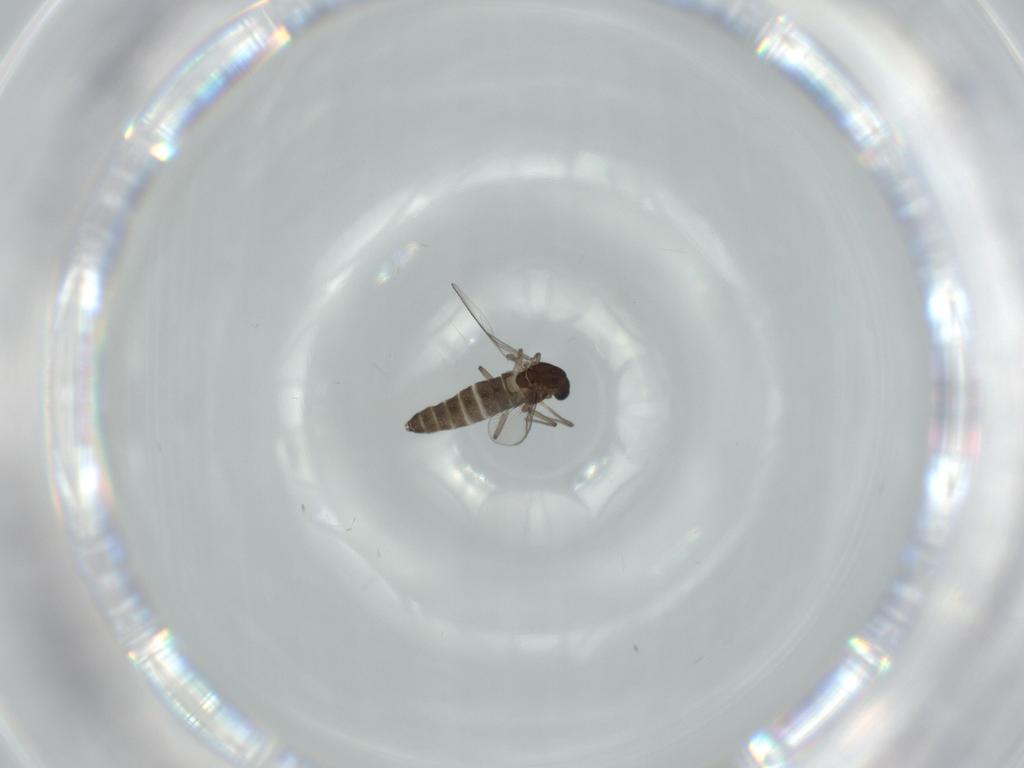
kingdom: Animalia
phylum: Arthropoda
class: Insecta
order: Diptera
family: Chironomidae
